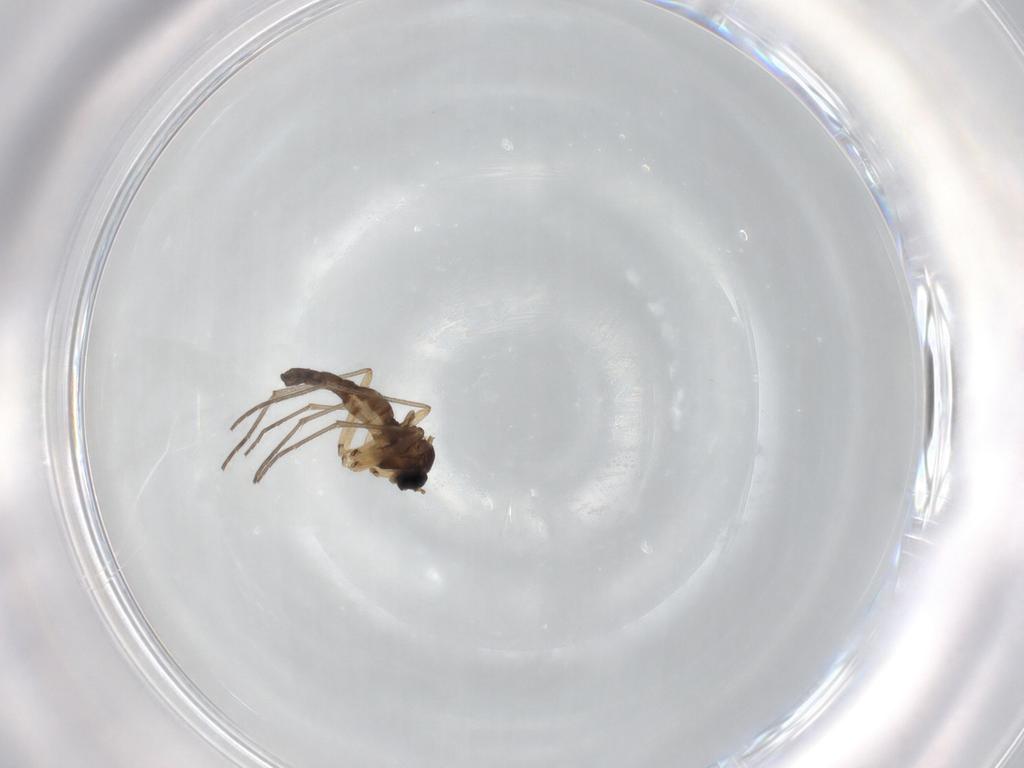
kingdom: Animalia
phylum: Arthropoda
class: Insecta
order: Diptera
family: Sciaridae
